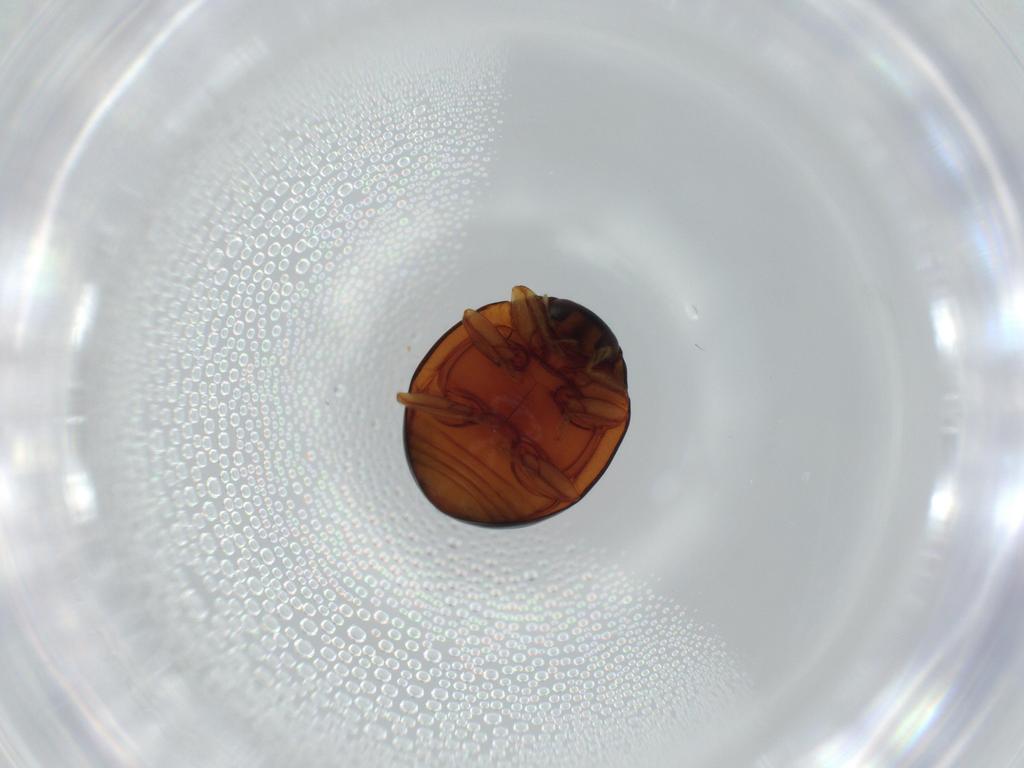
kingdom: Animalia
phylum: Arthropoda
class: Insecta
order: Coleoptera
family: Coccinellidae
